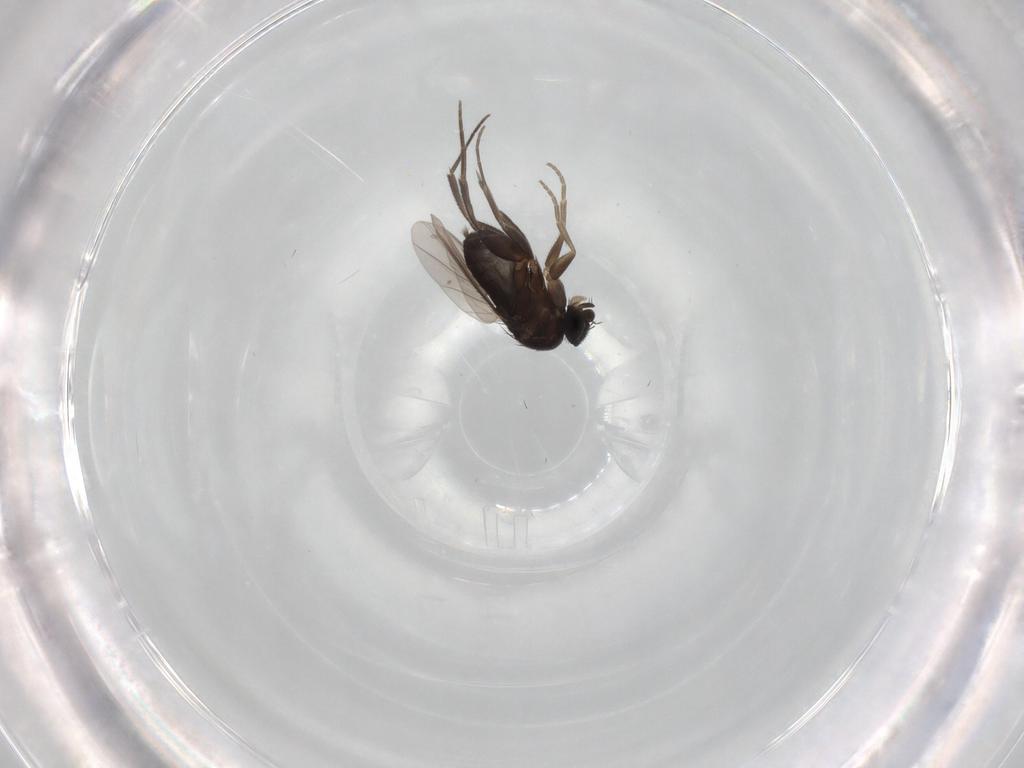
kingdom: Animalia
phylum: Arthropoda
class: Insecta
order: Diptera
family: Phoridae
